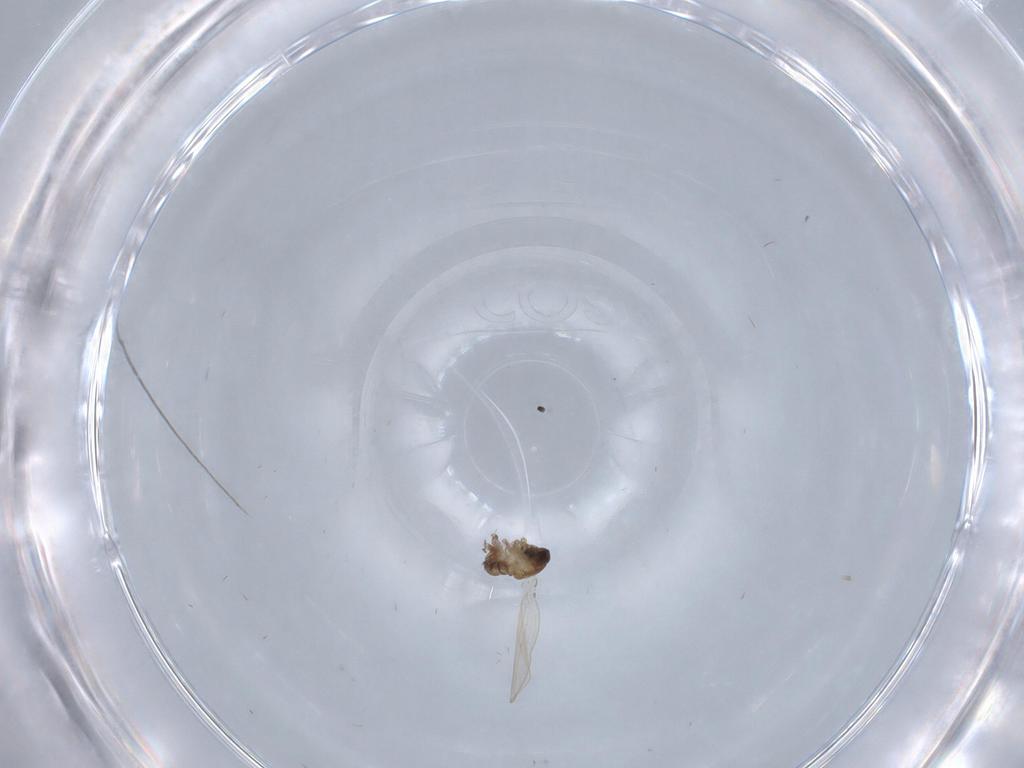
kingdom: Animalia
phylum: Arthropoda
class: Insecta
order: Diptera
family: Psychodidae
